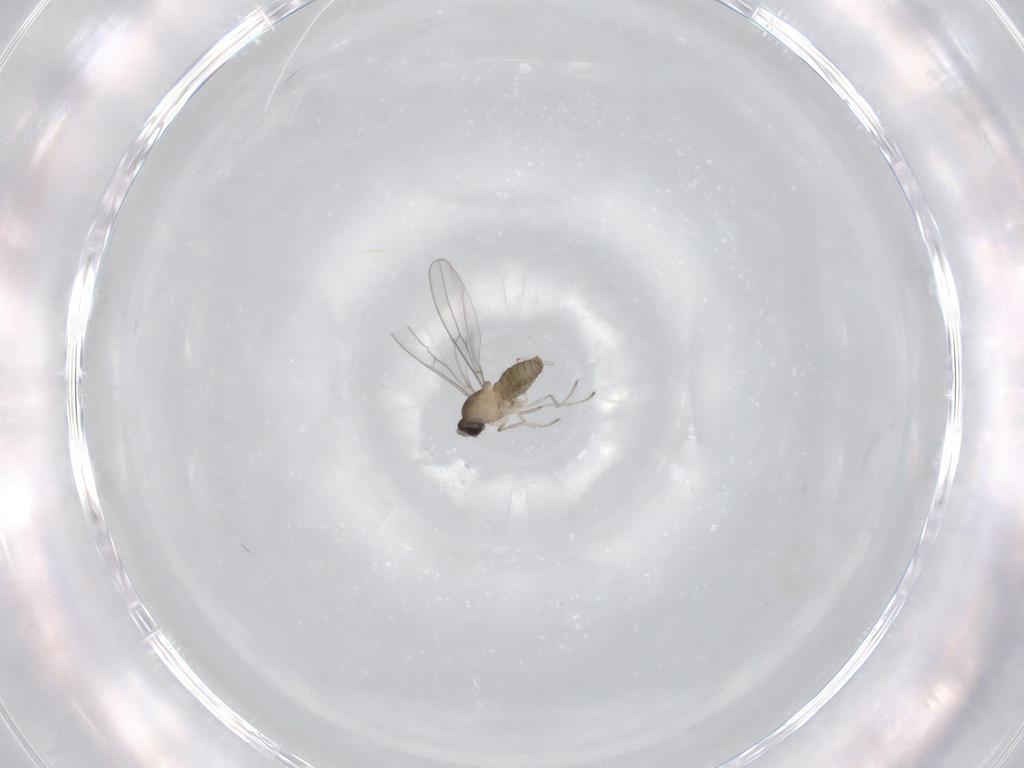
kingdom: Animalia
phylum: Arthropoda
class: Insecta
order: Diptera
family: Cecidomyiidae
